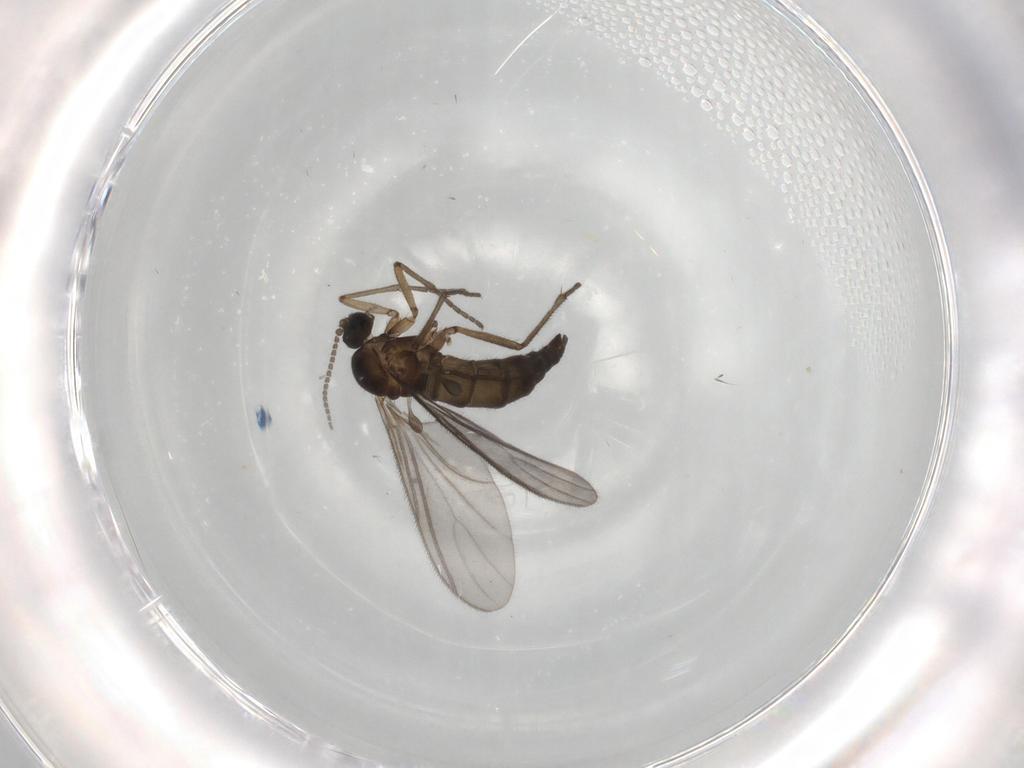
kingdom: Animalia
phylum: Arthropoda
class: Insecta
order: Diptera
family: Sciaridae
